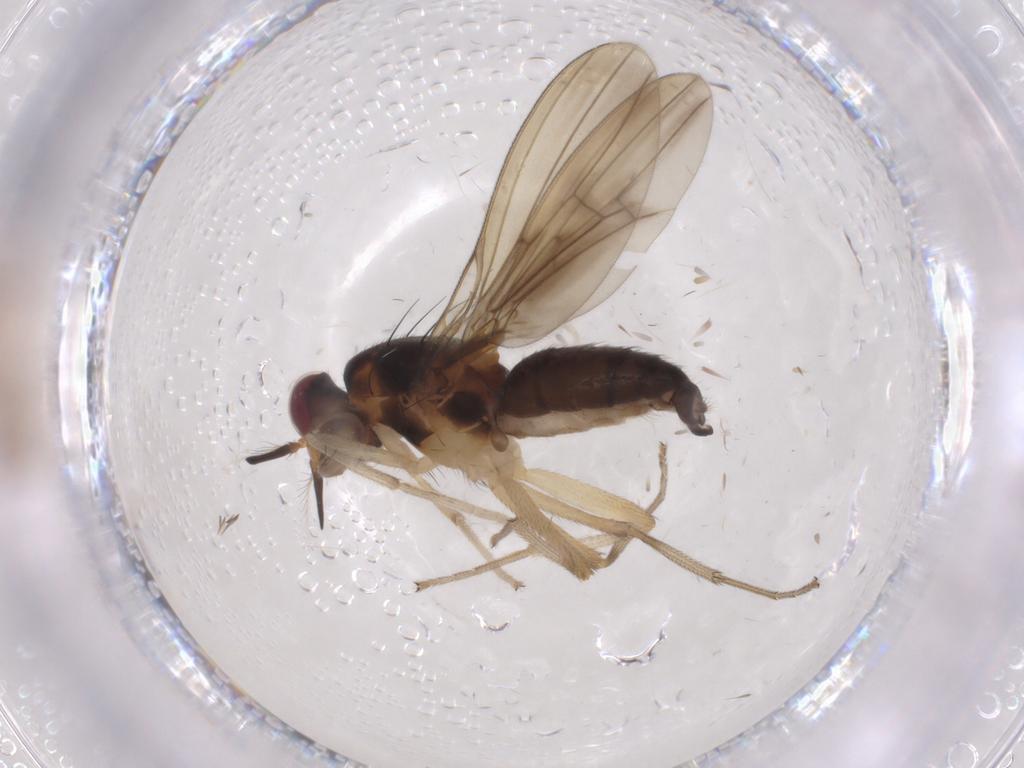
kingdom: Animalia
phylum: Arthropoda
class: Insecta
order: Diptera
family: Lauxaniidae
